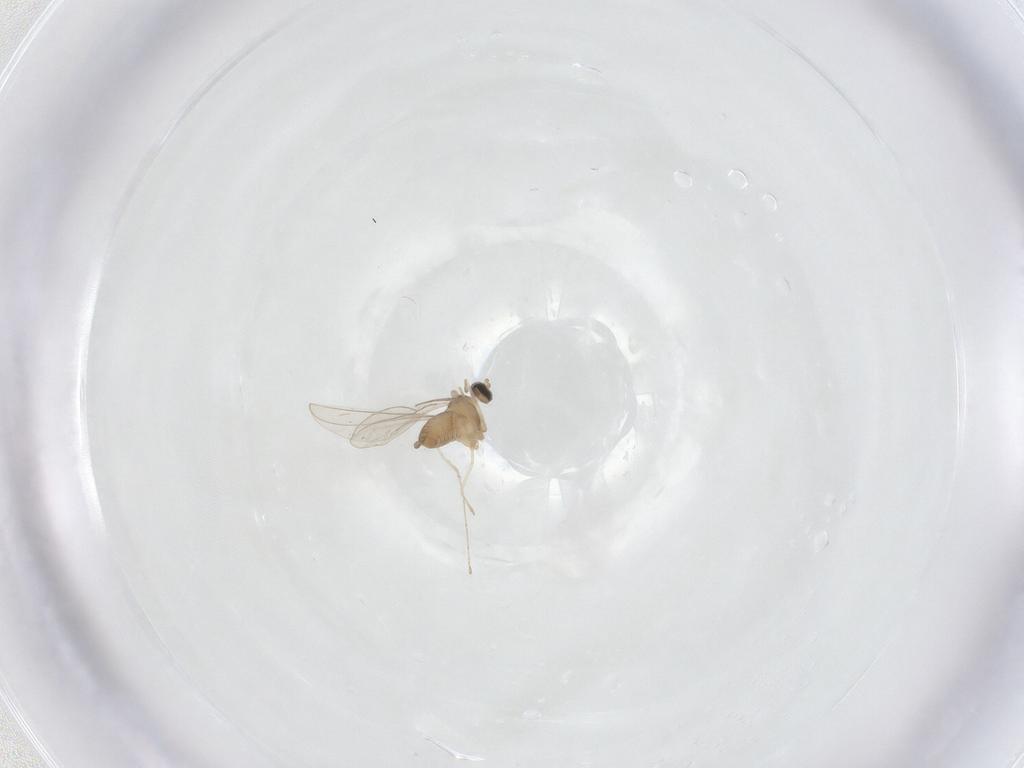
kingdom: Animalia
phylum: Arthropoda
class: Insecta
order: Diptera
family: Cecidomyiidae
